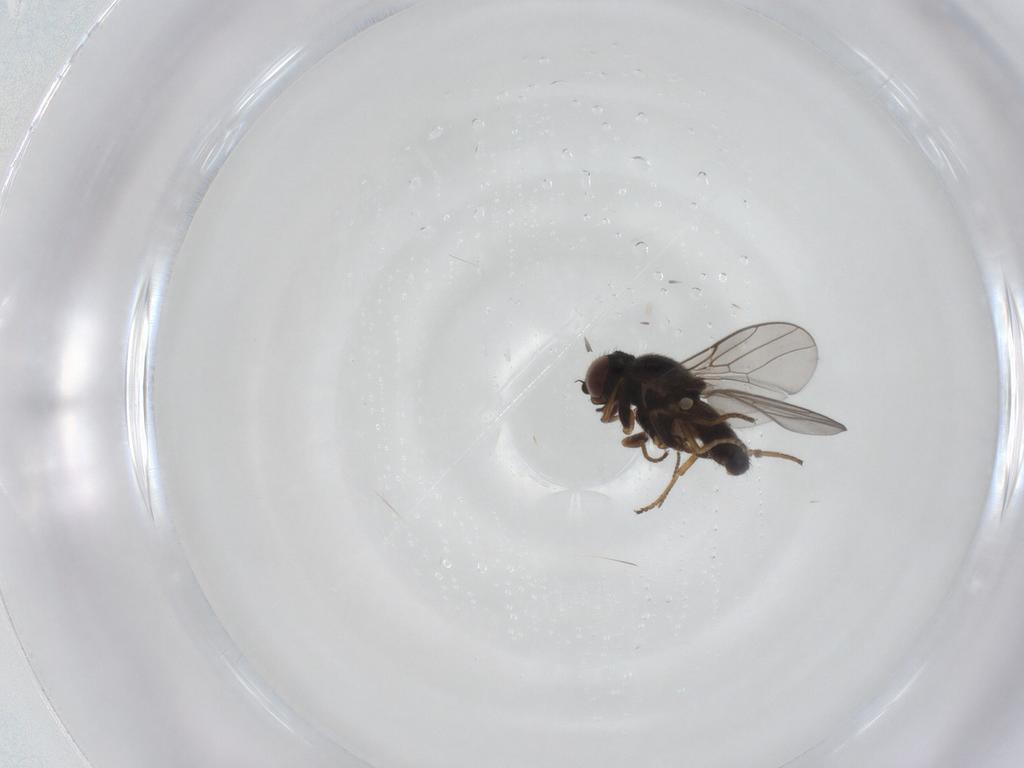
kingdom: Animalia
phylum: Arthropoda
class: Insecta
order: Diptera
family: Chloropidae
